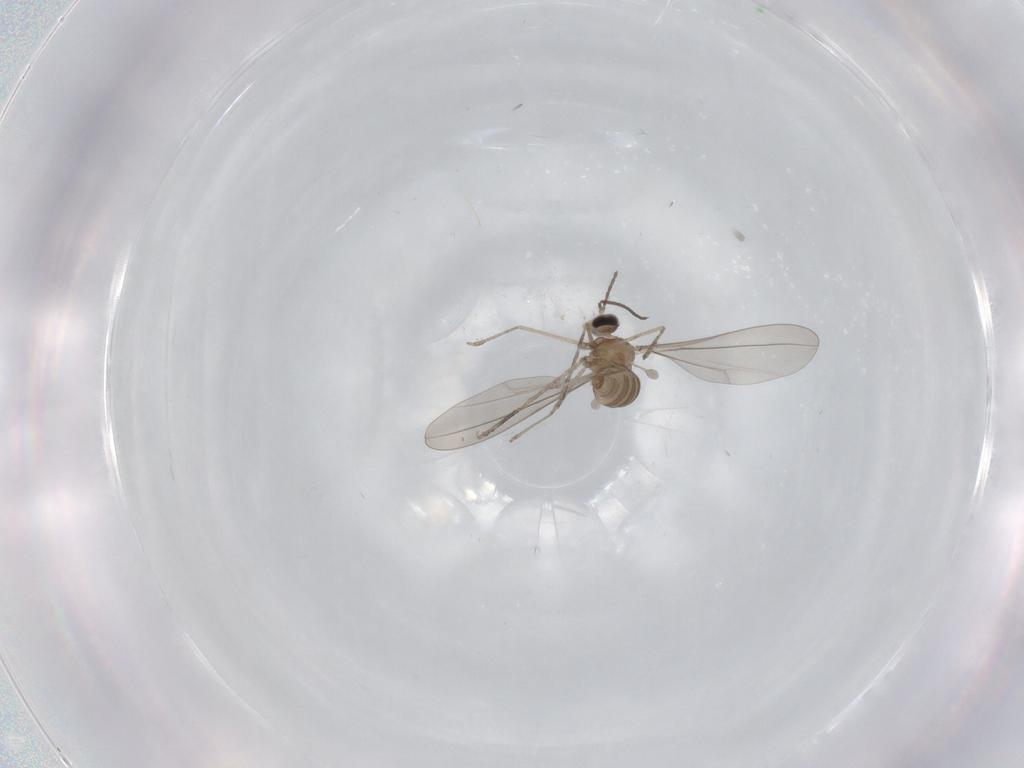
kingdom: Animalia
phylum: Arthropoda
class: Insecta
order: Diptera
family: Cecidomyiidae
